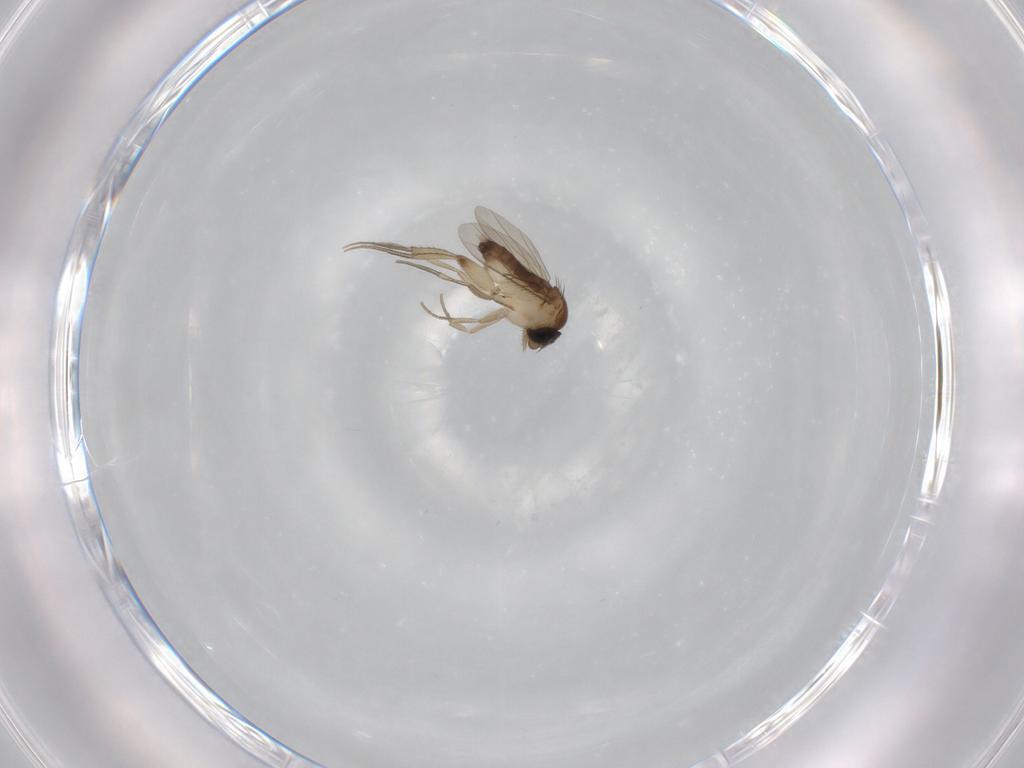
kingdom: Animalia
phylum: Arthropoda
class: Insecta
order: Diptera
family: Phoridae
